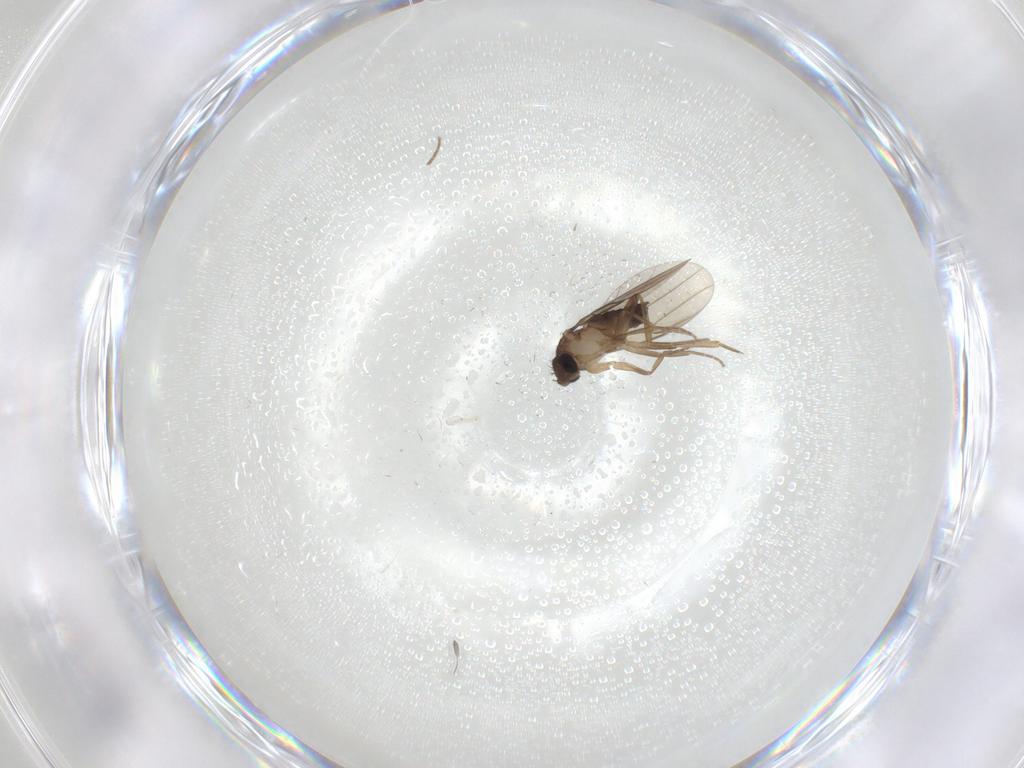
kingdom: Animalia
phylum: Arthropoda
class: Insecta
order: Diptera
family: Phoridae
